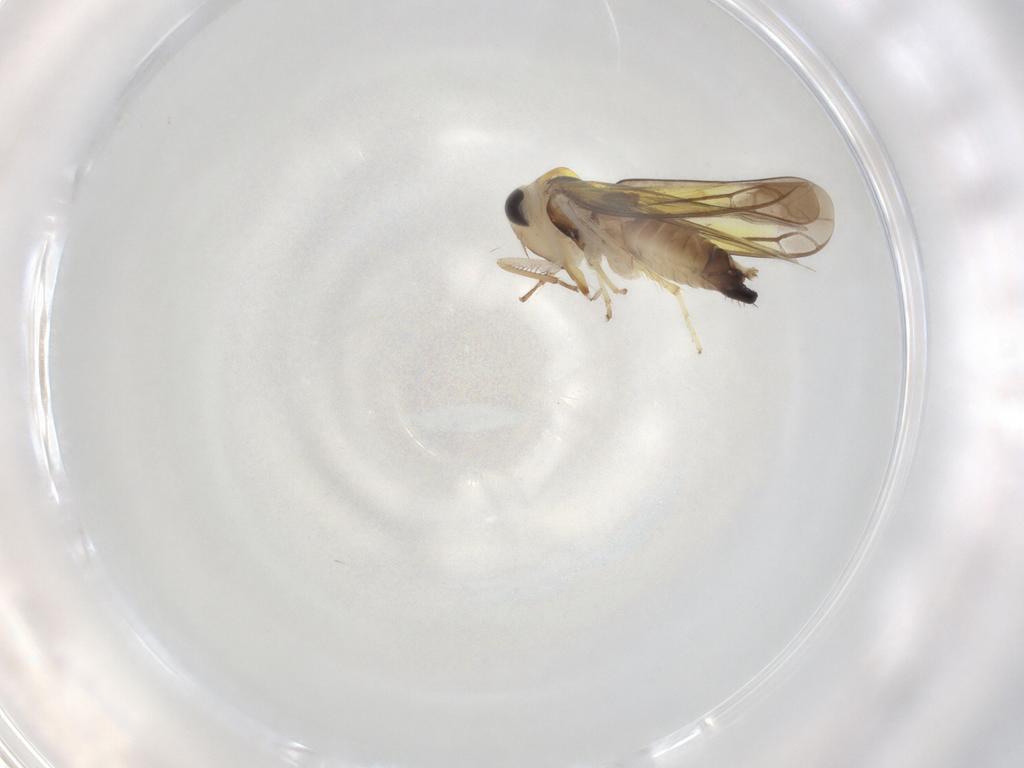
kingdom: Animalia
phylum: Arthropoda
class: Insecta
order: Hemiptera
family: Cicadellidae
